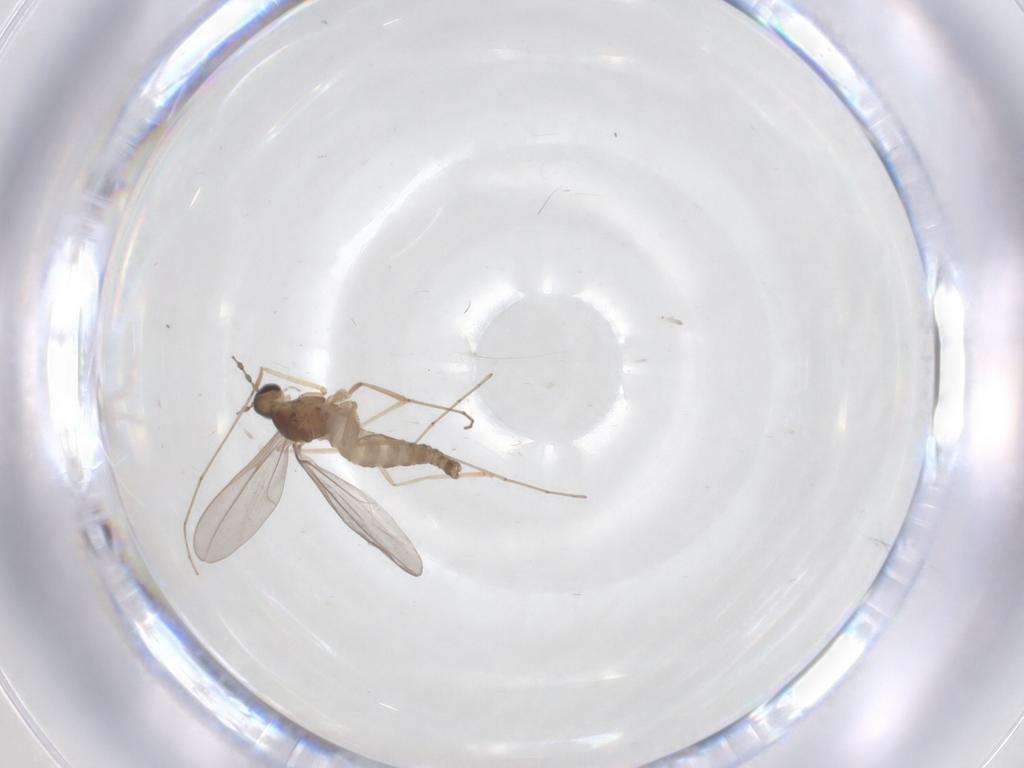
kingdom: Animalia
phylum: Arthropoda
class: Insecta
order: Diptera
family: Cecidomyiidae
